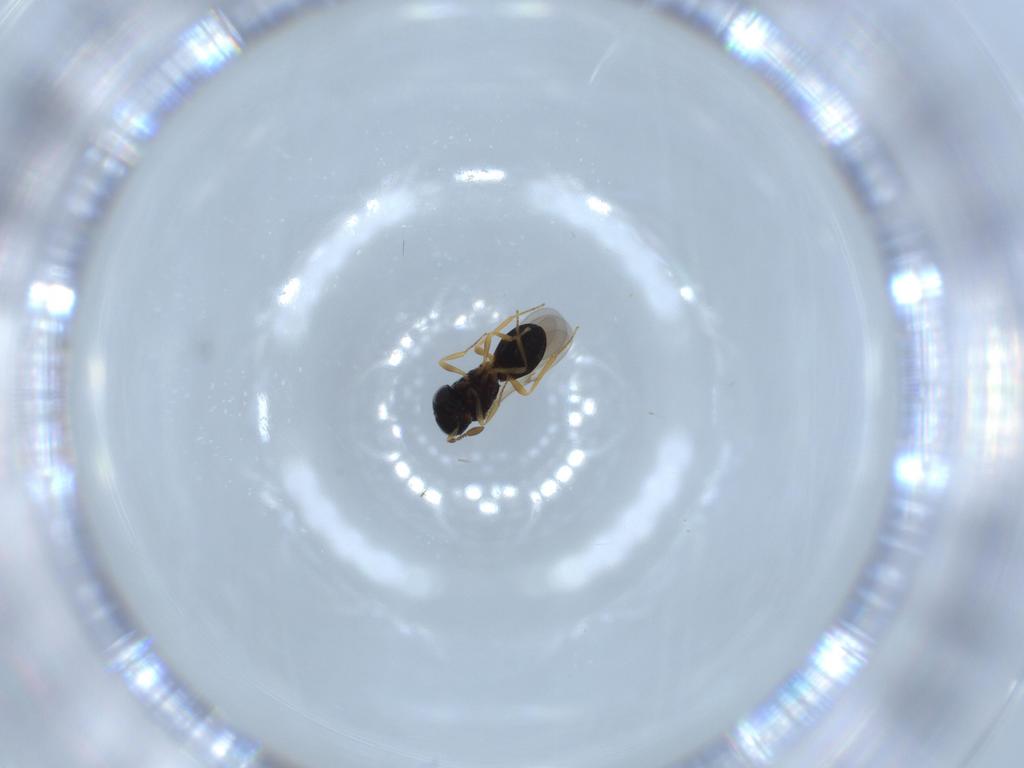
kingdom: Animalia
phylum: Arthropoda
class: Insecta
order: Hymenoptera
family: Scelionidae
